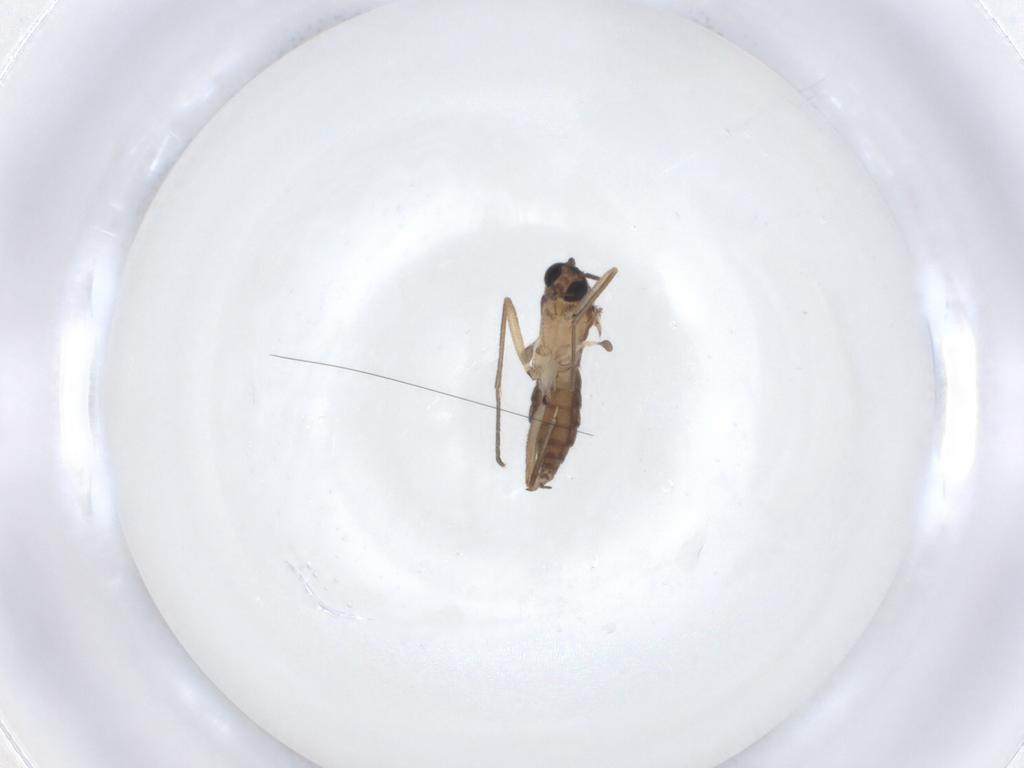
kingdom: Animalia
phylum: Arthropoda
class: Insecta
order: Diptera
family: Sciaridae
